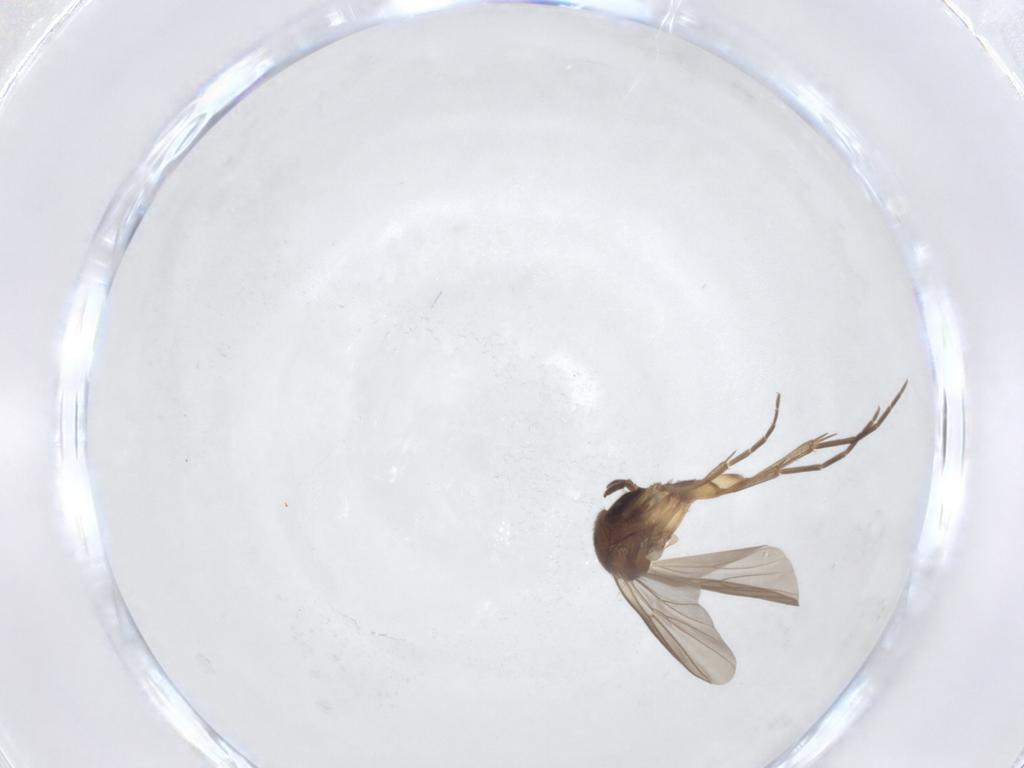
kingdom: Animalia
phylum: Arthropoda
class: Insecta
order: Diptera
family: Mycetophilidae
